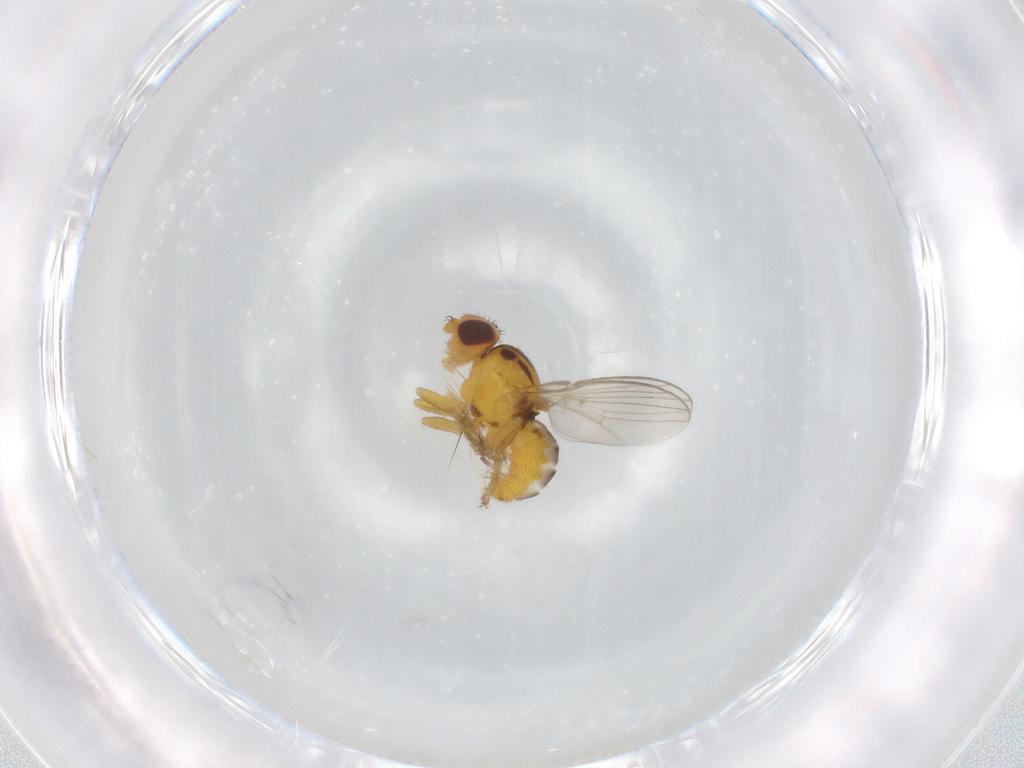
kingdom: Animalia
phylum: Arthropoda
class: Insecta
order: Diptera
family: Chloropidae
